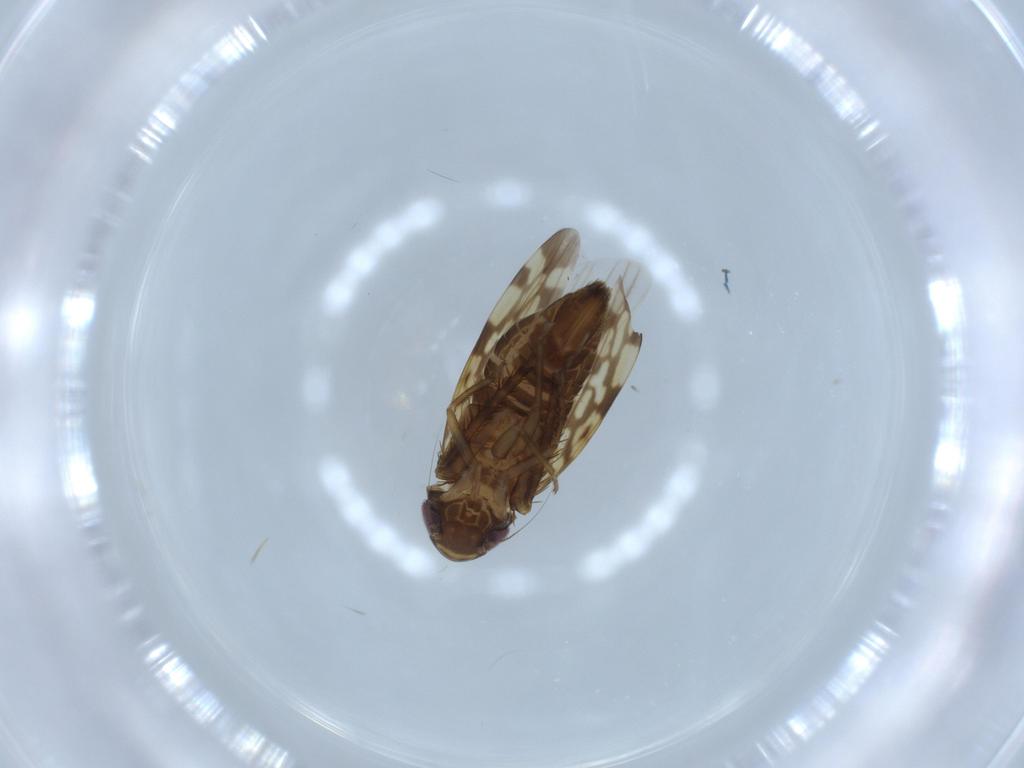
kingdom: Animalia
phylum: Arthropoda
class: Insecta
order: Hemiptera
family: Cicadellidae
